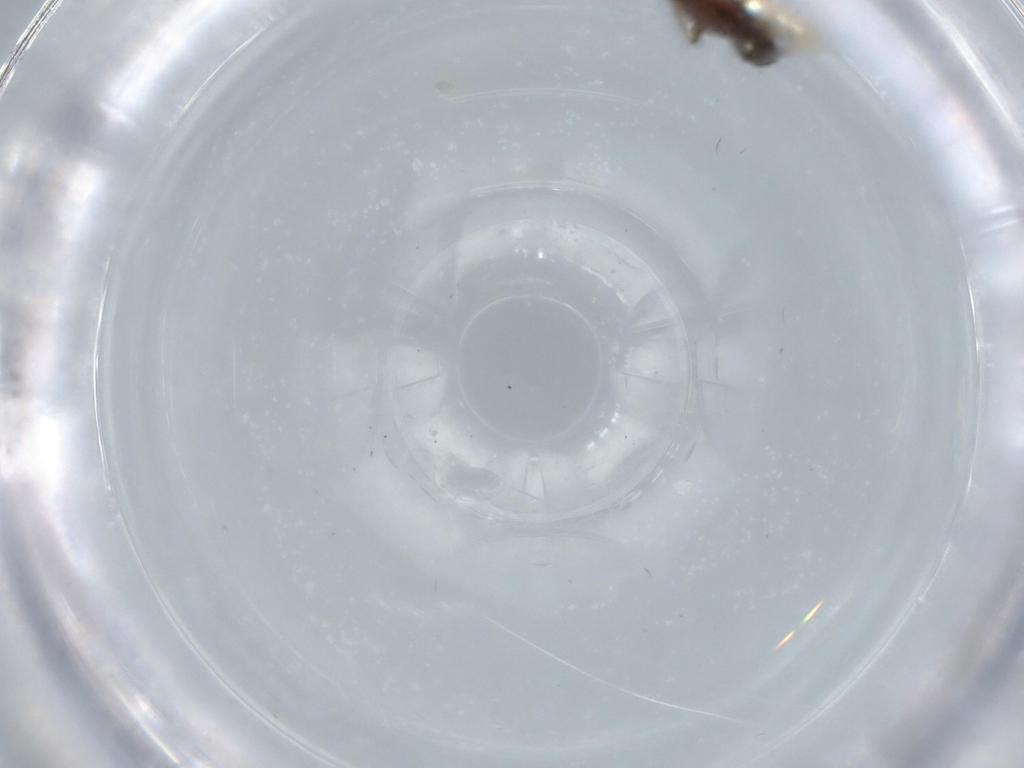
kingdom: Animalia
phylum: Arthropoda
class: Insecta
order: Diptera
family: Ceratopogonidae
